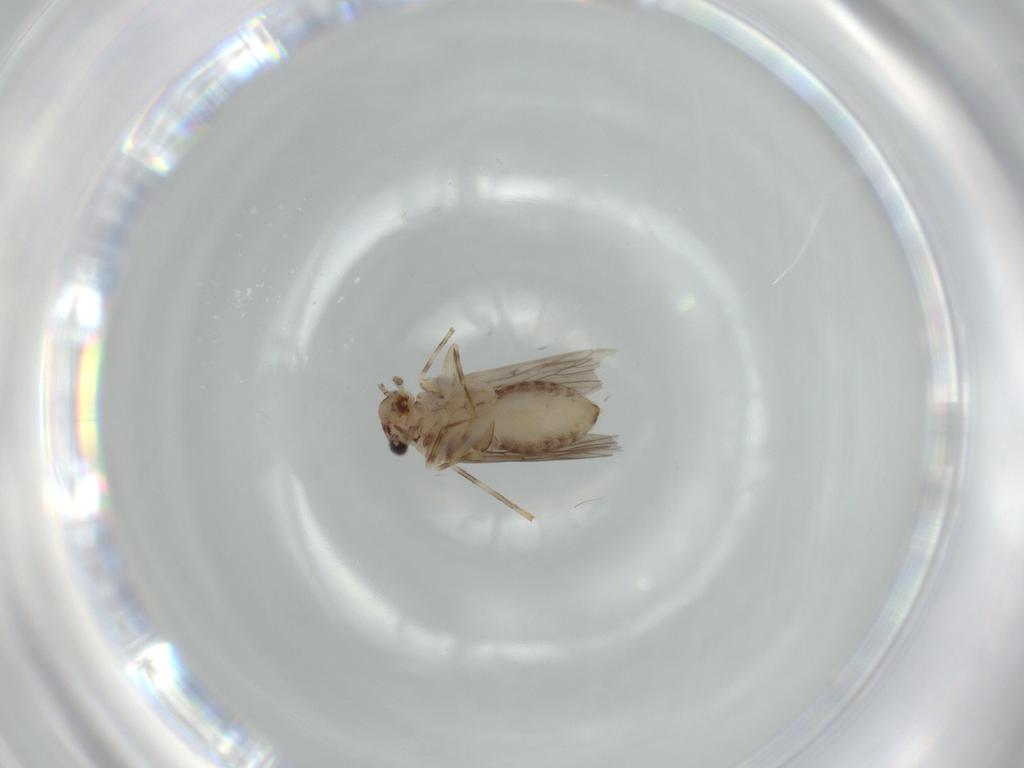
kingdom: Animalia
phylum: Arthropoda
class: Insecta
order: Psocodea
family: Lepidopsocidae
